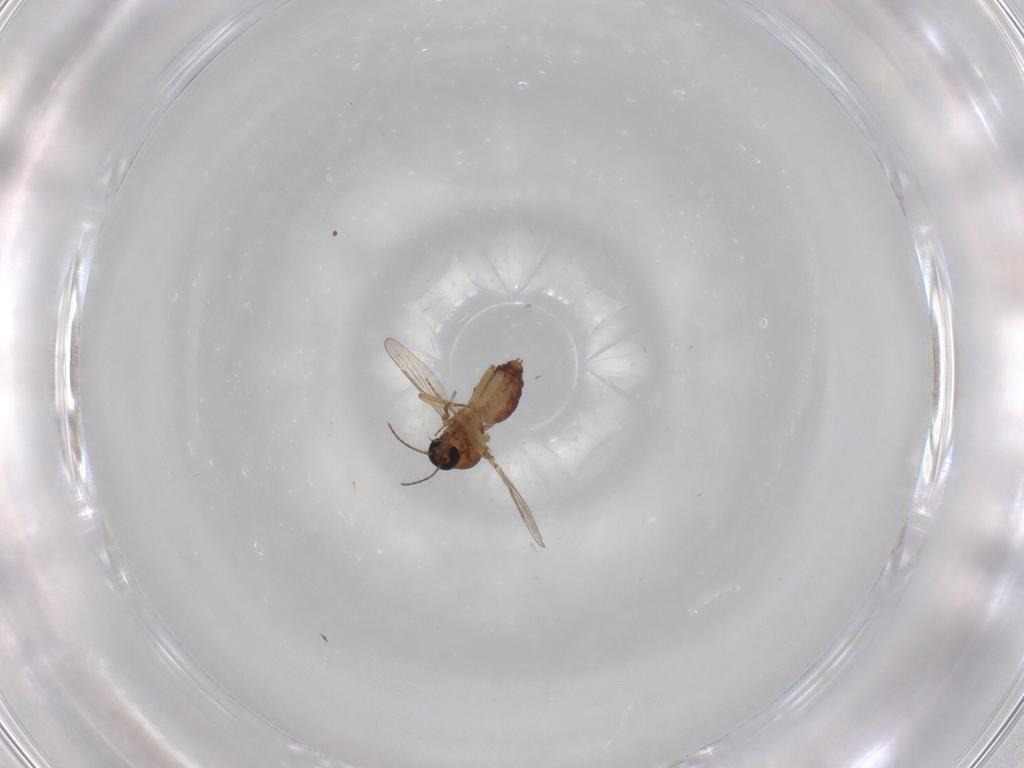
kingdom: Animalia
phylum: Arthropoda
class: Insecta
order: Diptera
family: Ceratopogonidae
